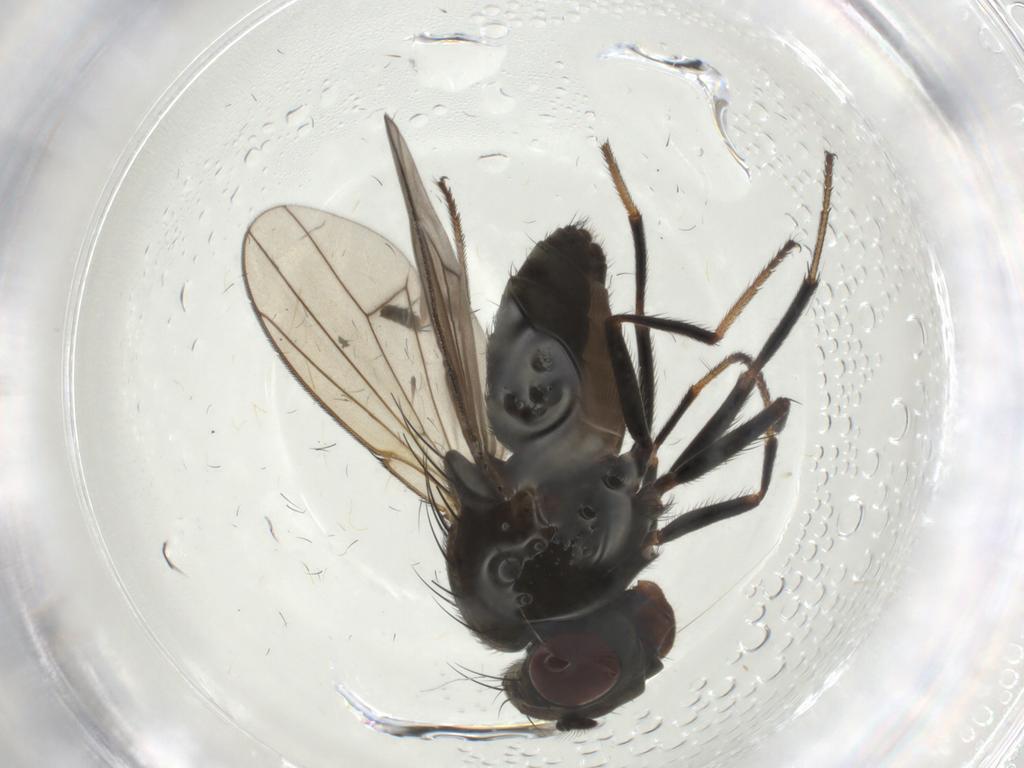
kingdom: Animalia
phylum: Arthropoda
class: Insecta
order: Diptera
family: Ephydridae
